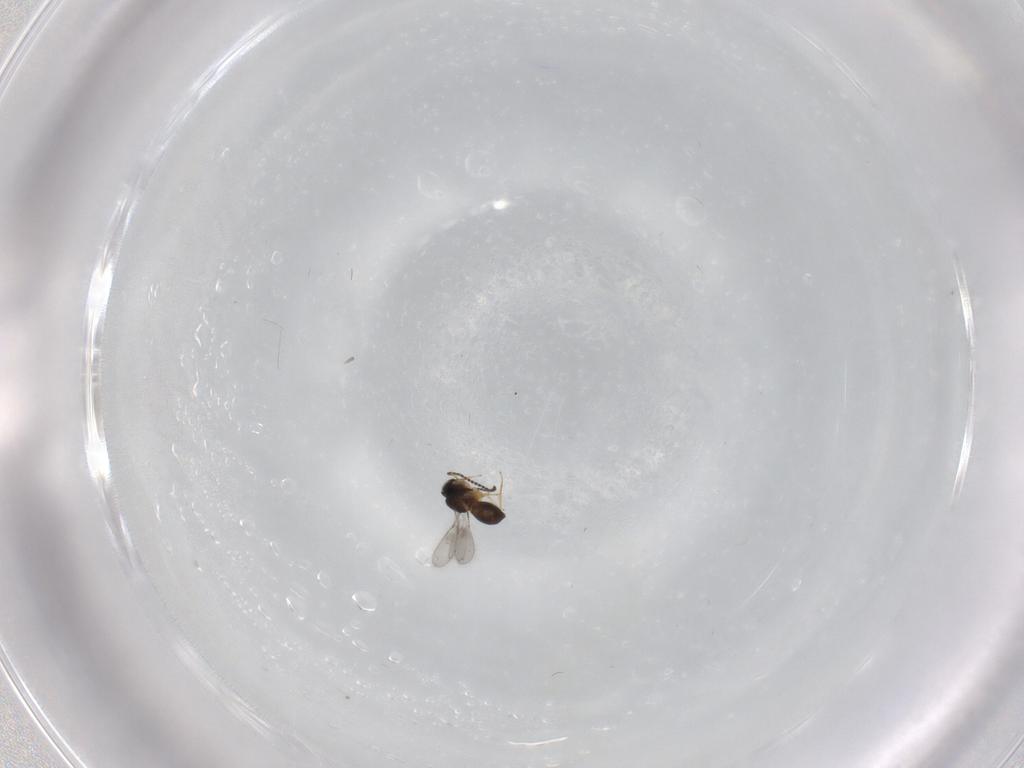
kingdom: Animalia
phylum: Arthropoda
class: Insecta
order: Hymenoptera
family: Scelionidae
